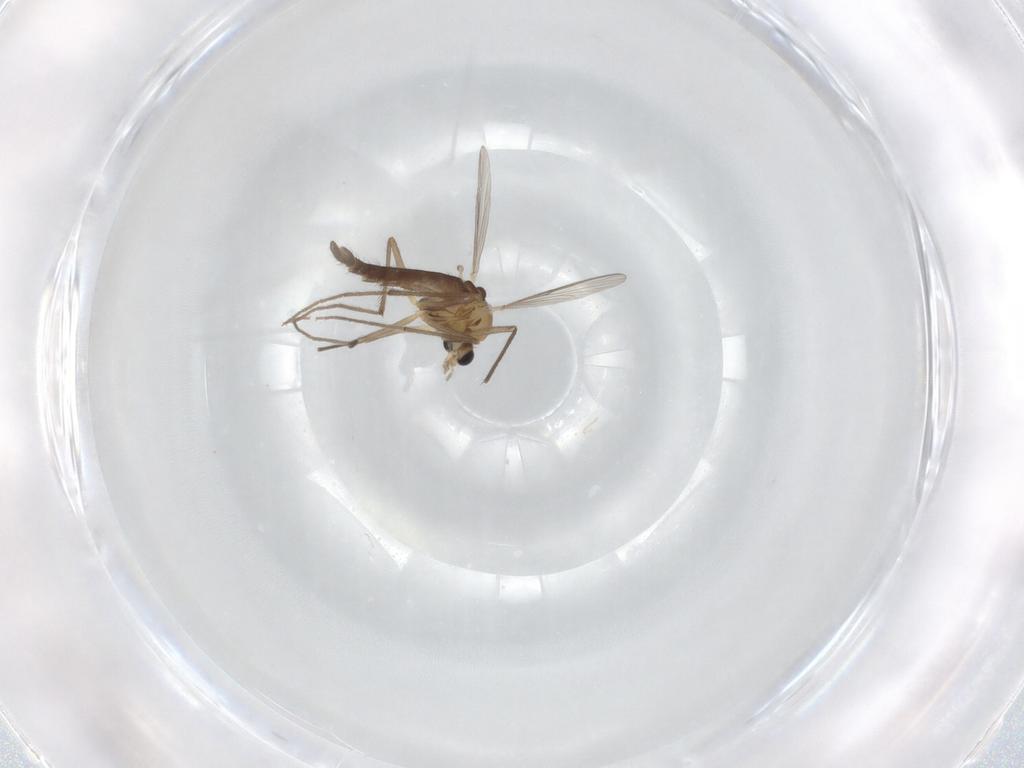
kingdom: Animalia
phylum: Arthropoda
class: Insecta
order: Diptera
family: Chironomidae
